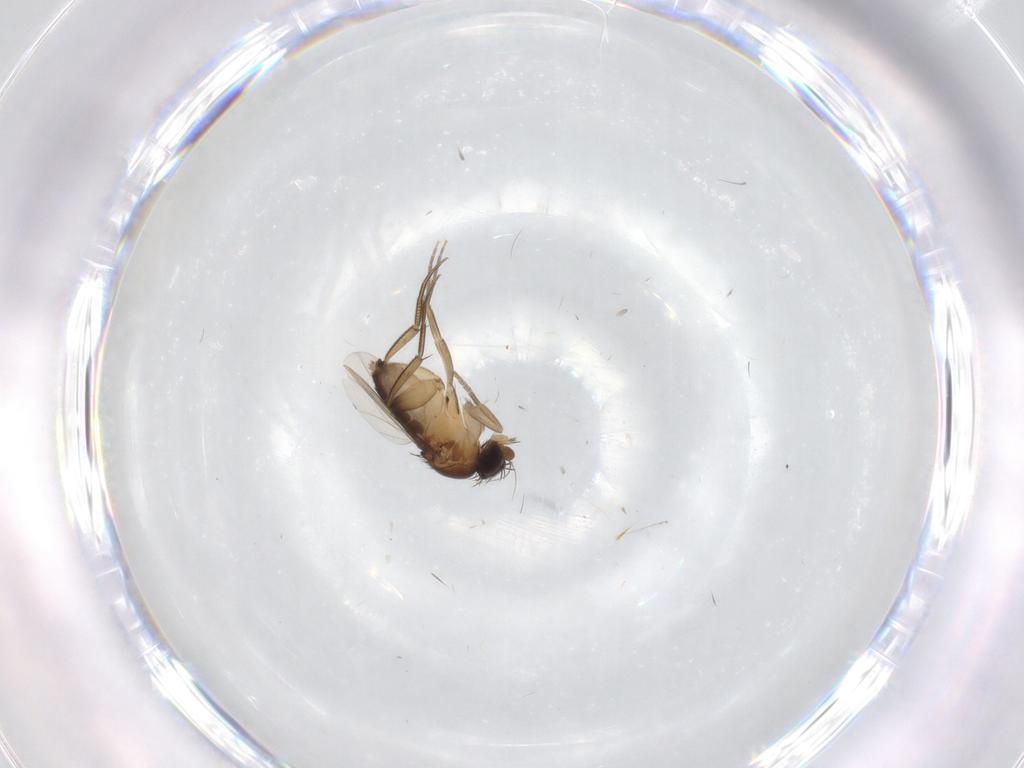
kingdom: Animalia
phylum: Arthropoda
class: Insecta
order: Diptera
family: Phoridae
